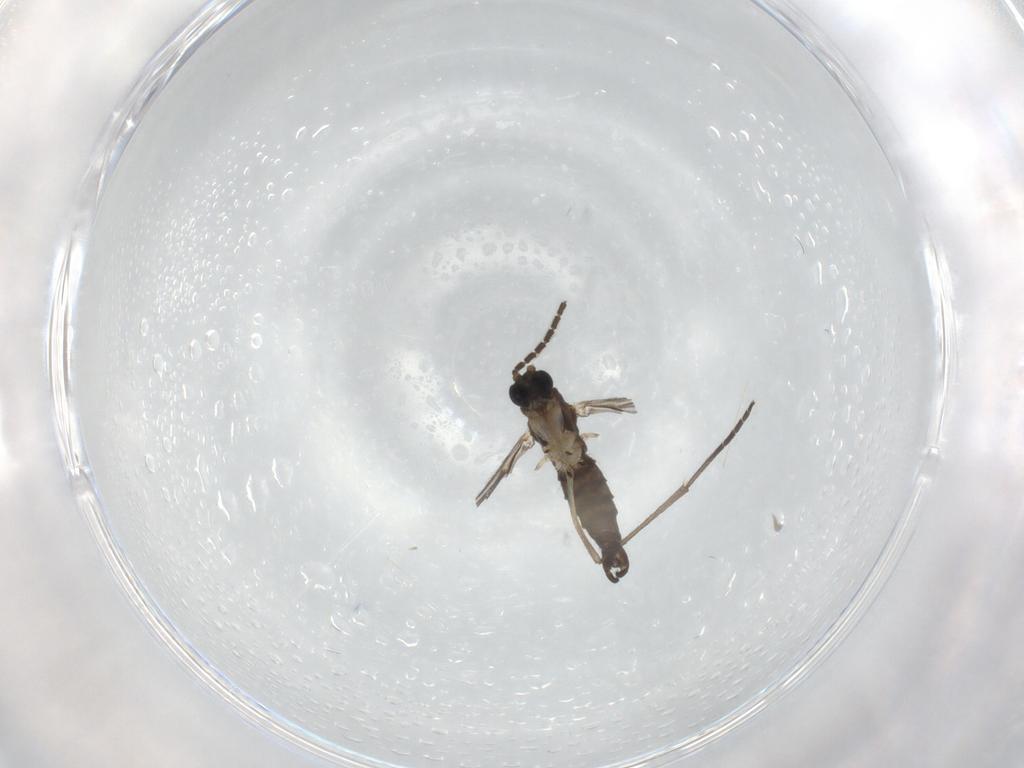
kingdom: Animalia
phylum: Arthropoda
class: Insecta
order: Diptera
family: Sciaridae
